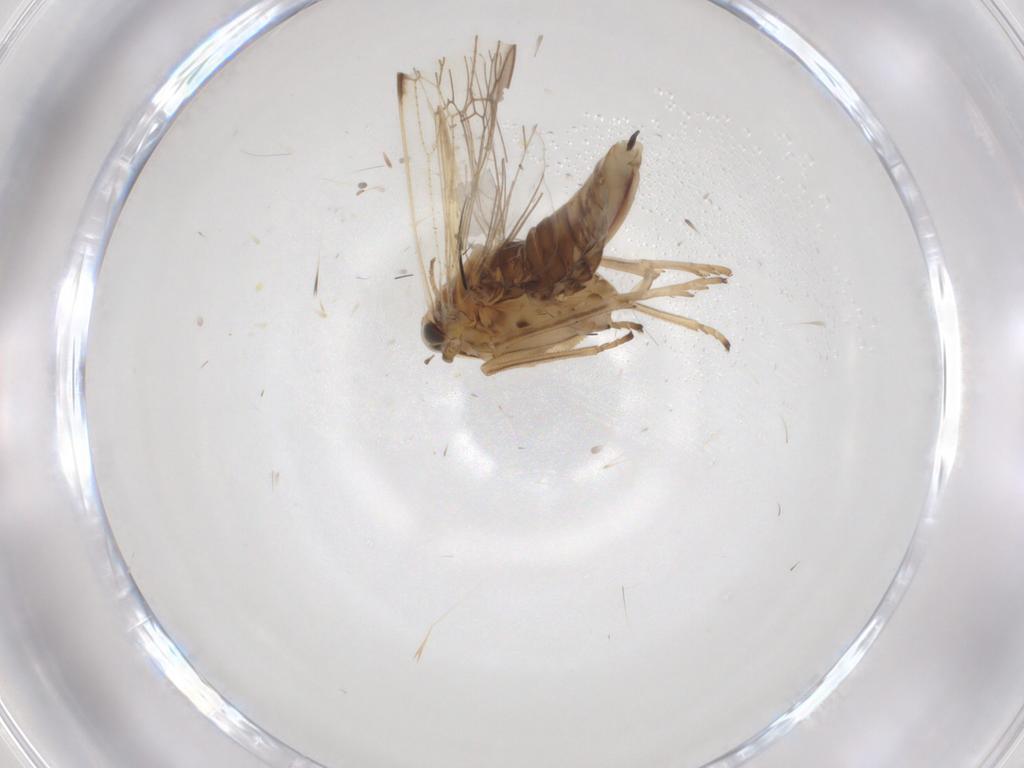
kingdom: Animalia
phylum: Arthropoda
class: Insecta
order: Hemiptera
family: Delphacidae
